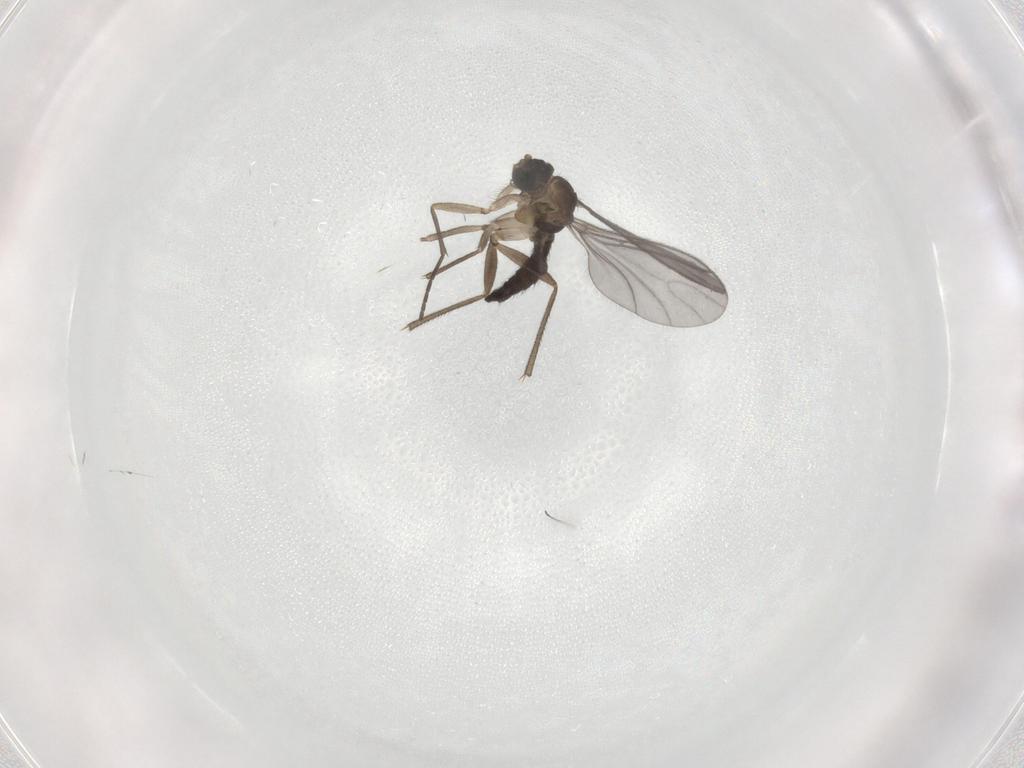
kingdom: Animalia
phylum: Arthropoda
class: Insecta
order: Diptera
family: Sciaridae
